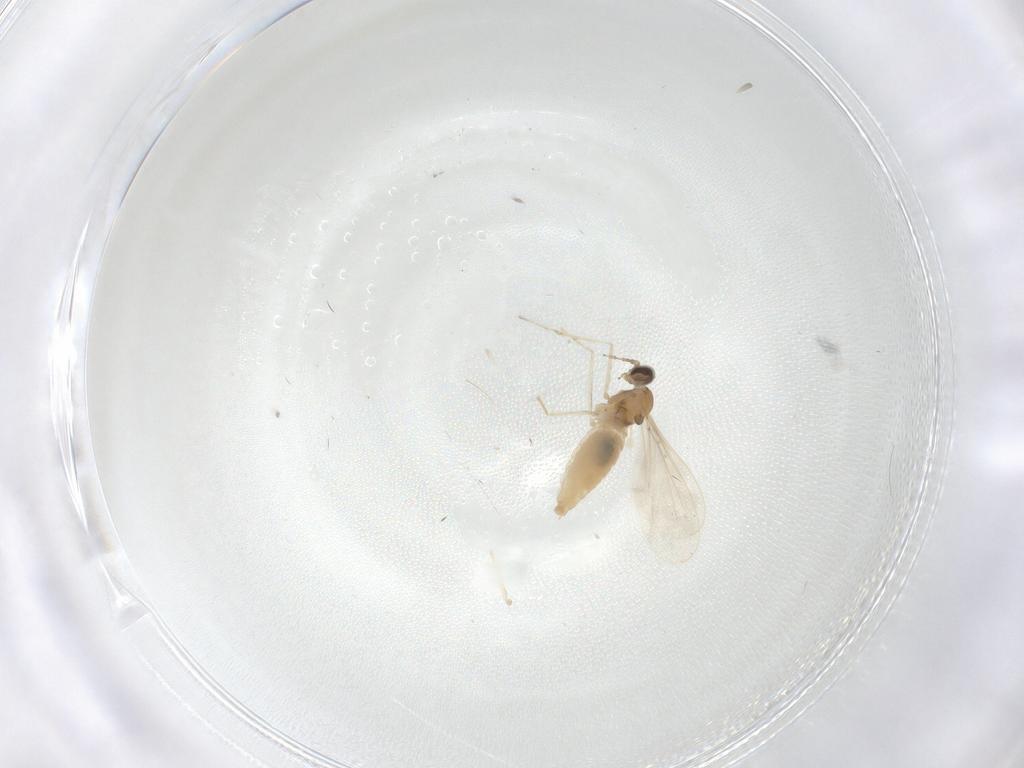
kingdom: Animalia
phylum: Arthropoda
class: Insecta
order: Diptera
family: Cecidomyiidae
